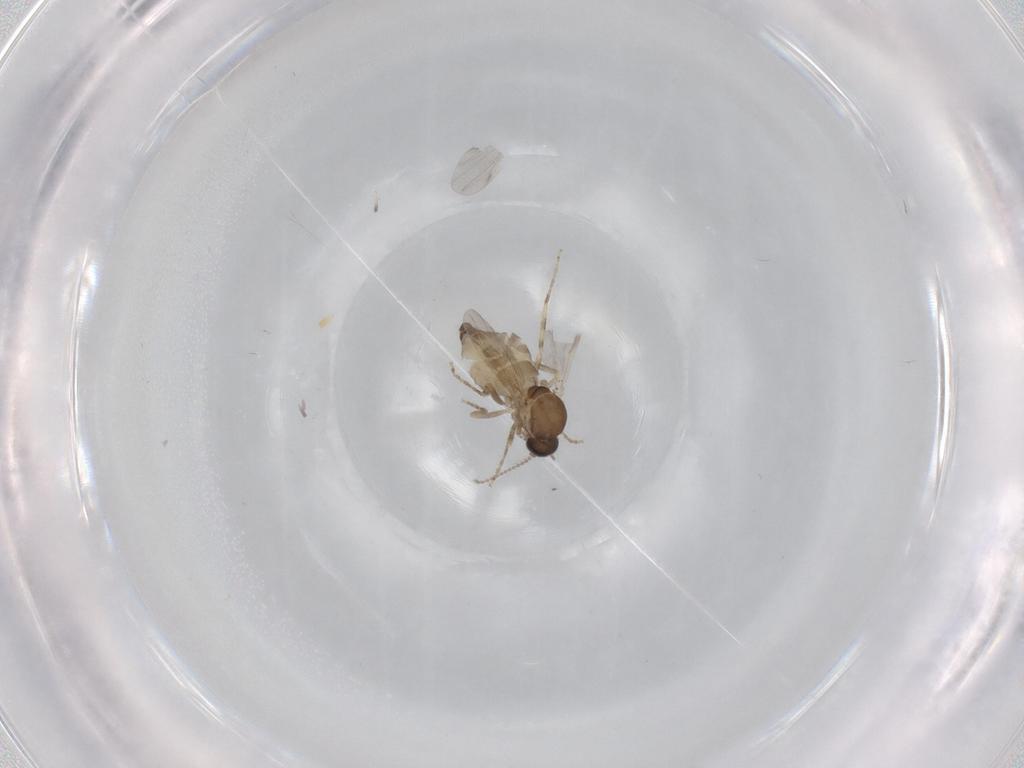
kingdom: Animalia
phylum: Arthropoda
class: Insecta
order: Diptera
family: Ceratopogonidae
